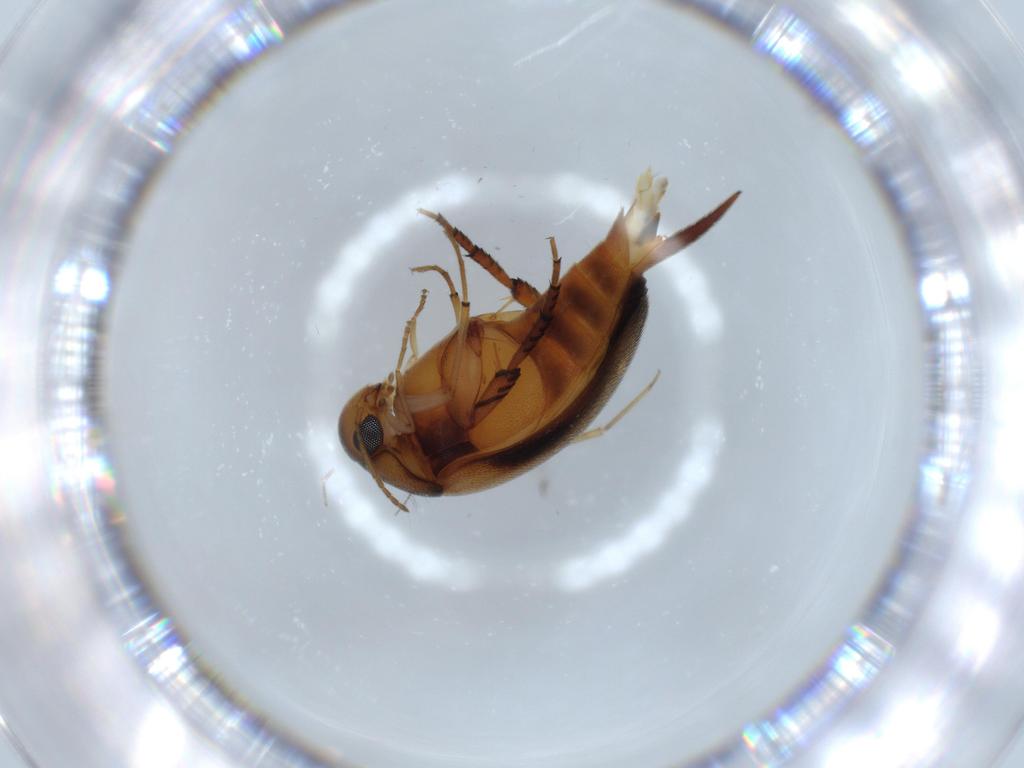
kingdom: Animalia
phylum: Arthropoda
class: Insecta
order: Coleoptera
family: Mordellidae
